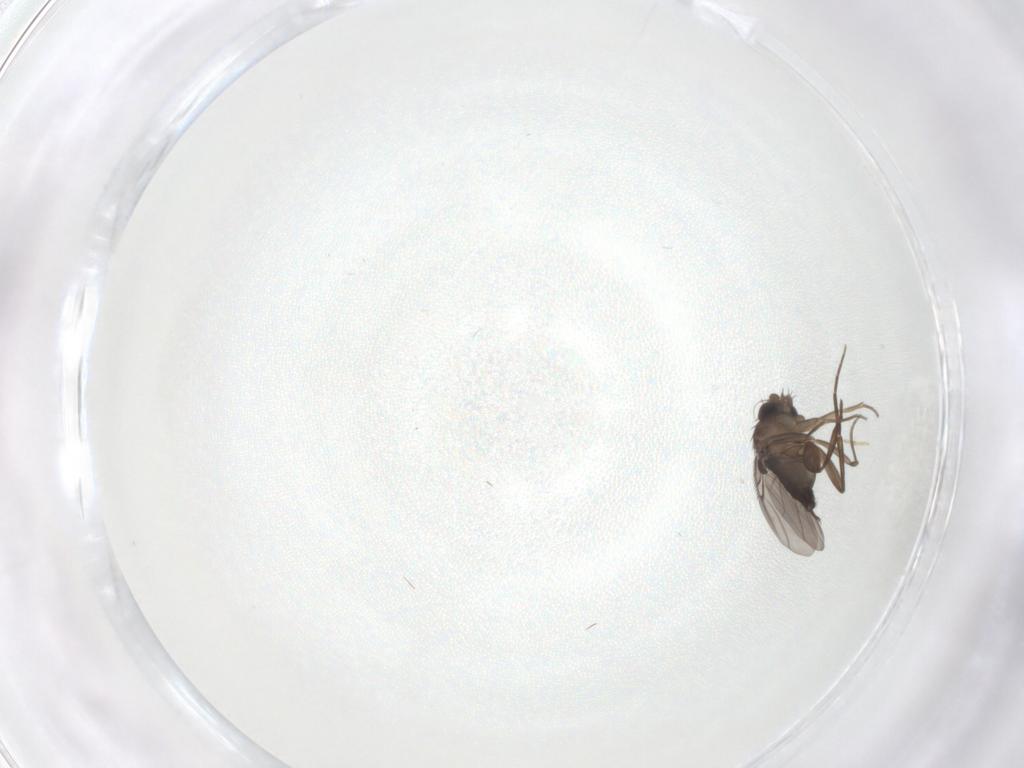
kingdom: Animalia
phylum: Arthropoda
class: Insecta
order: Diptera
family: Phoridae
